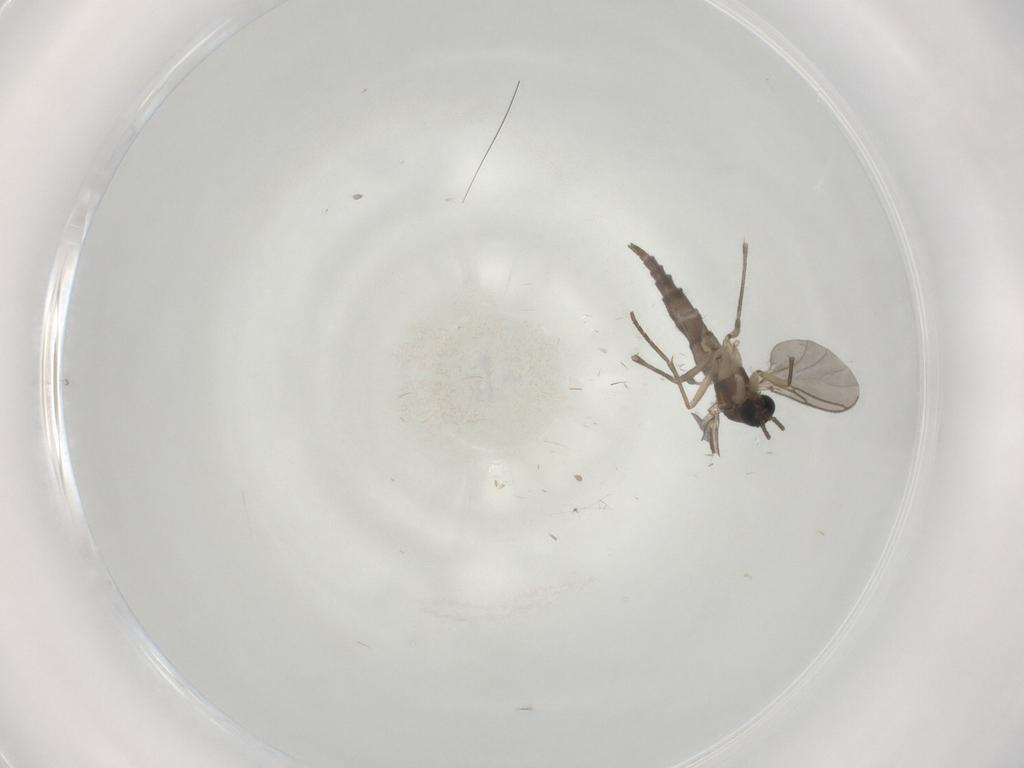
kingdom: Animalia
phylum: Arthropoda
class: Insecta
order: Diptera
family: Sciaridae
